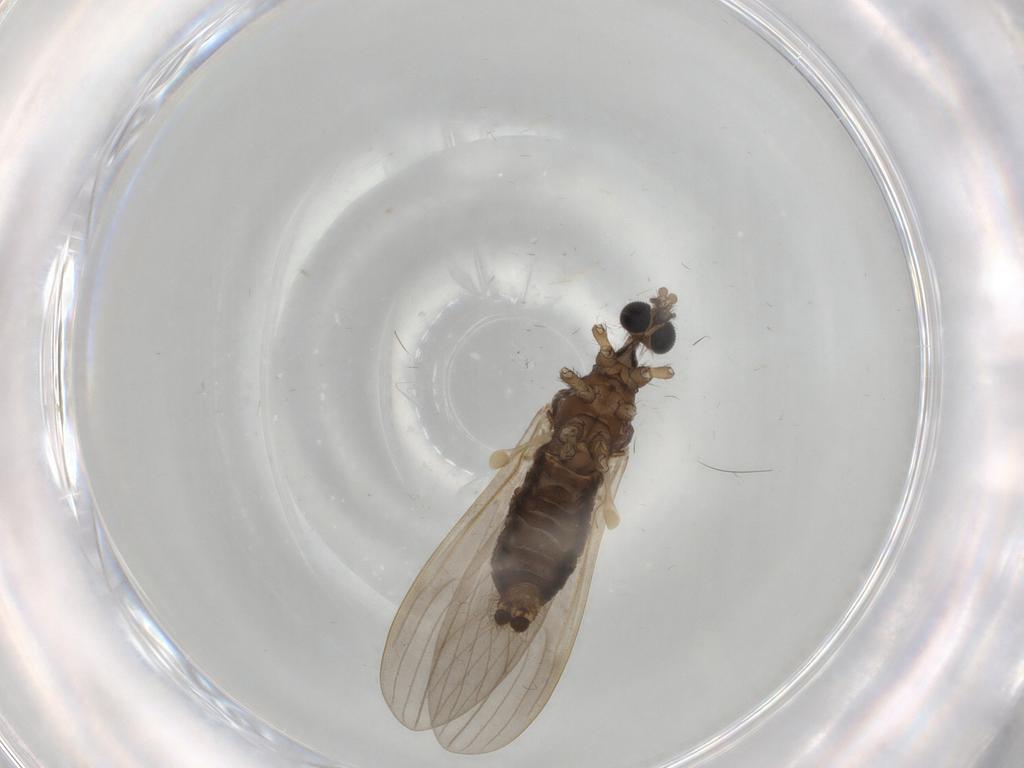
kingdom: Animalia
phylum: Arthropoda
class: Insecta
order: Diptera
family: Limoniidae
